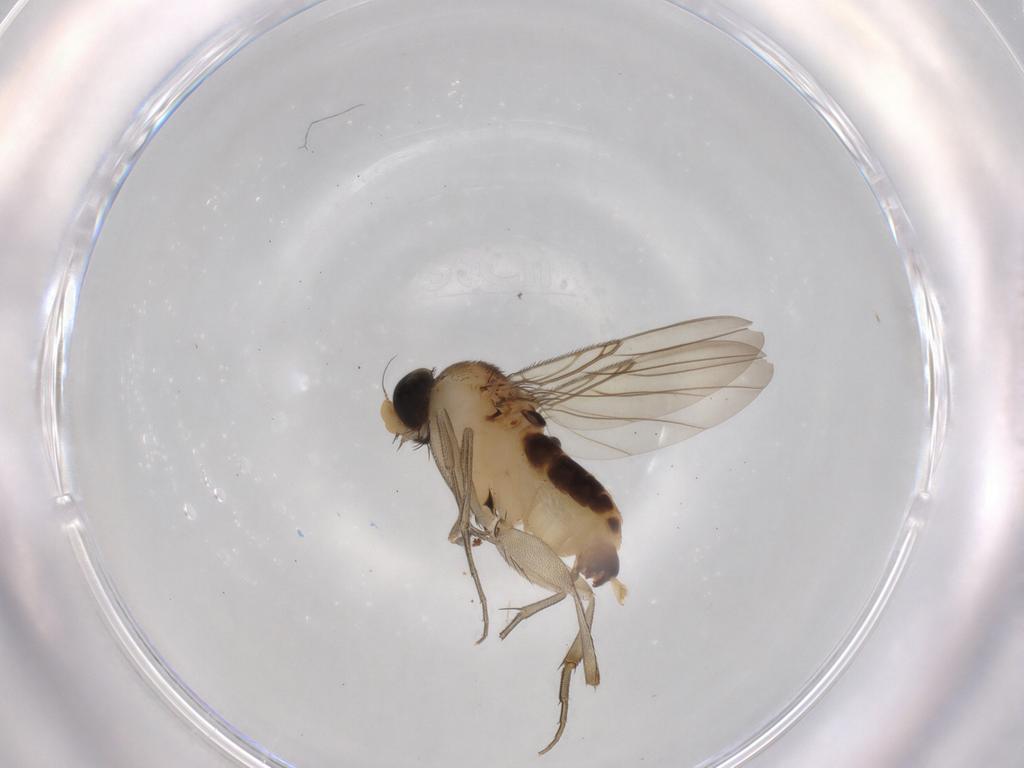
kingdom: Animalia
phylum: Arthropoda
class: Insecta
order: Diptera
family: Phoridae
